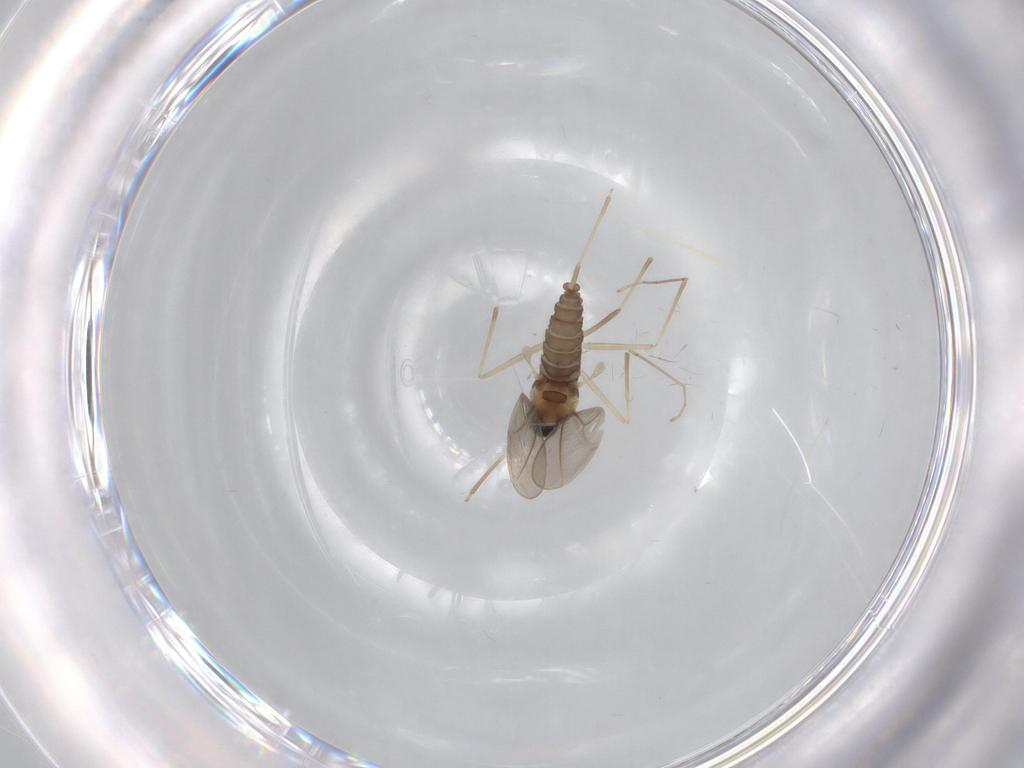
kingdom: Animalia
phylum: Arthropoda
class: Insecta
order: Diptera
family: Cecidomyiidae
